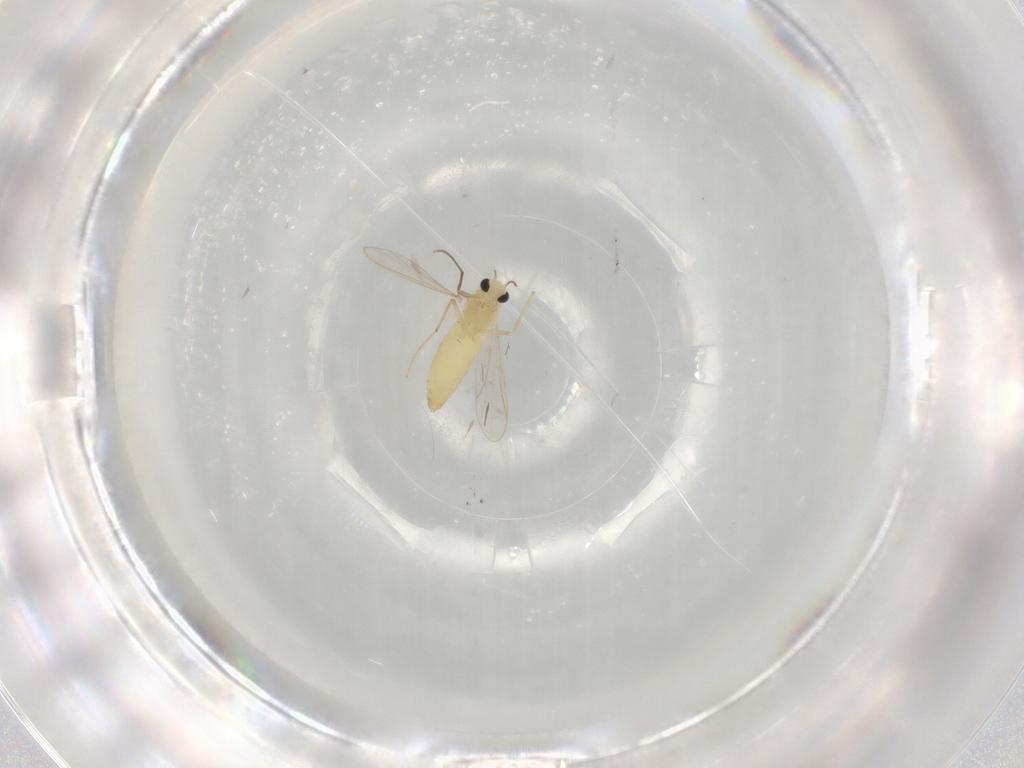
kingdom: Animalia
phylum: Arthropoda
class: Insecta
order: Diptera
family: Chironomidae
